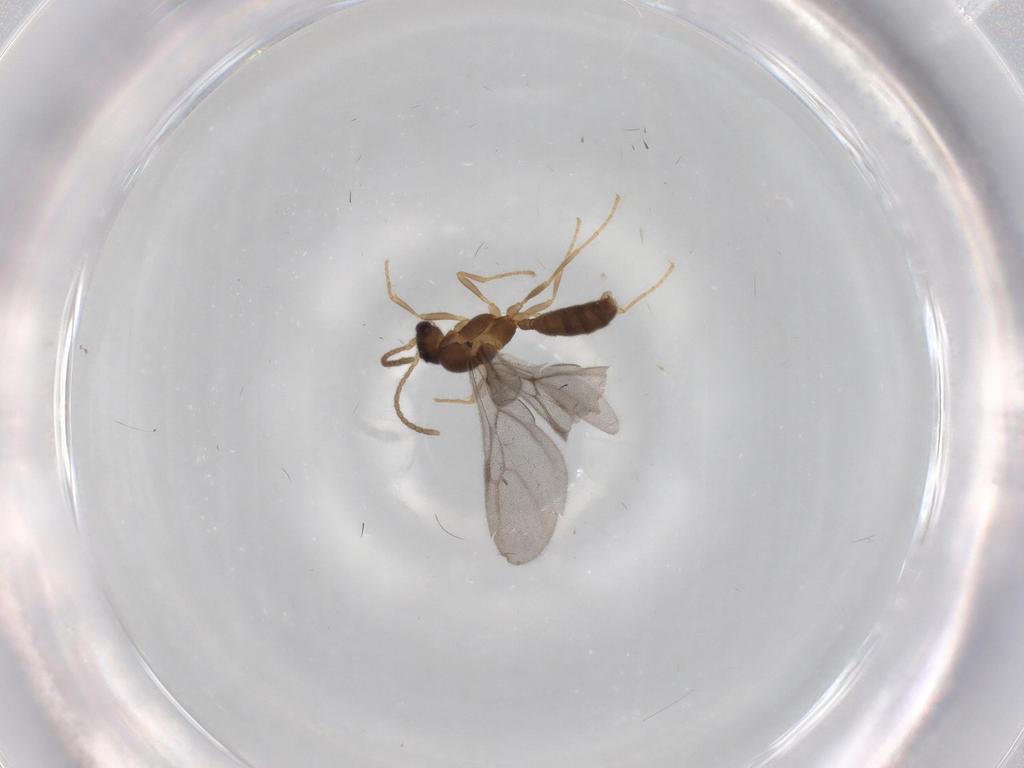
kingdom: Animalia
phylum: Arthropoda
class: Insecta
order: Hymenoptera
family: Formicidae
